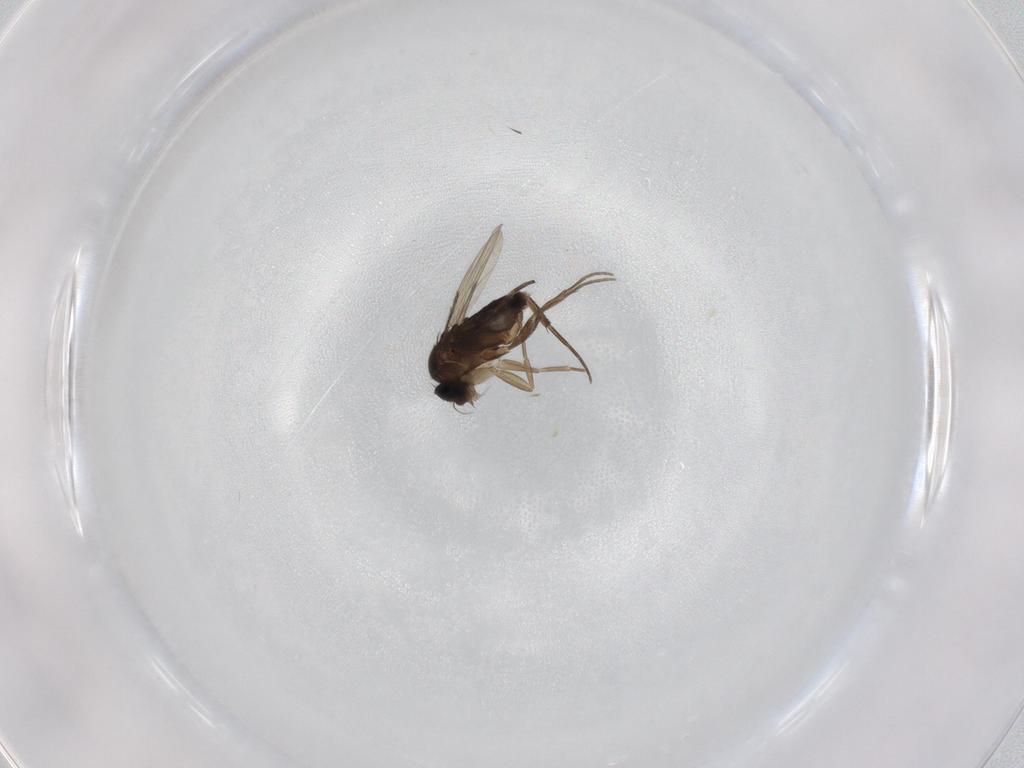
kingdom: Animalia
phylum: Arthropoda
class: Insecta
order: Diptera
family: Phoridae
